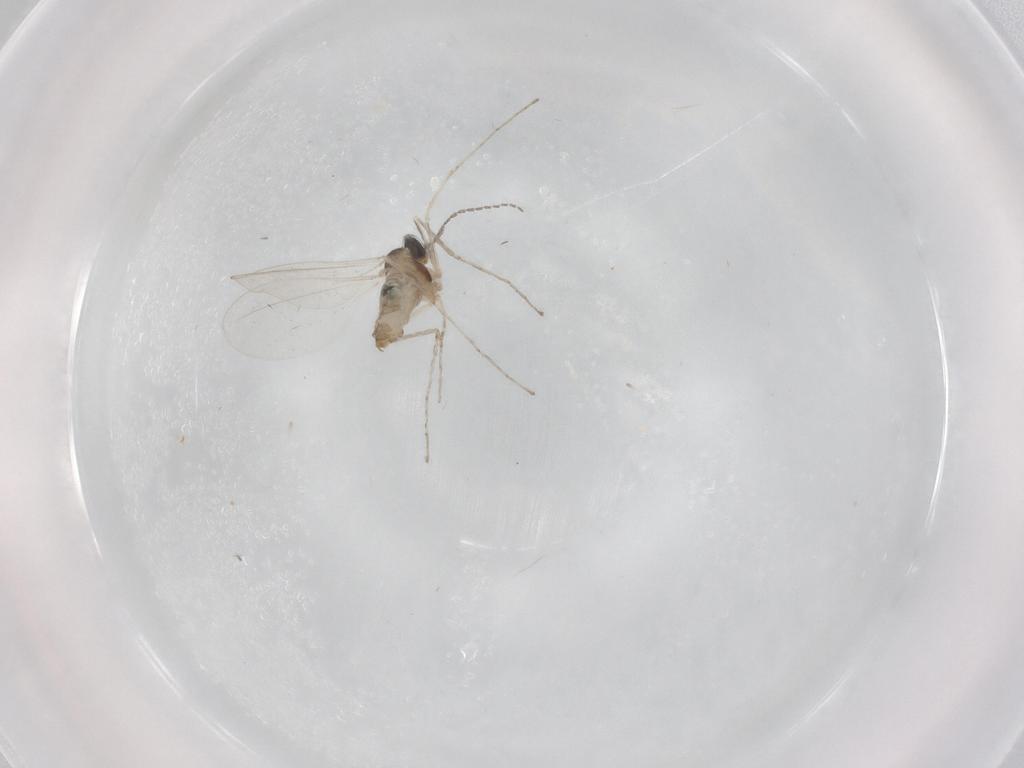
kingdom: Animalia
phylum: Arthropoda
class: Insecta
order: Diptera
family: Cecidomyiidae
